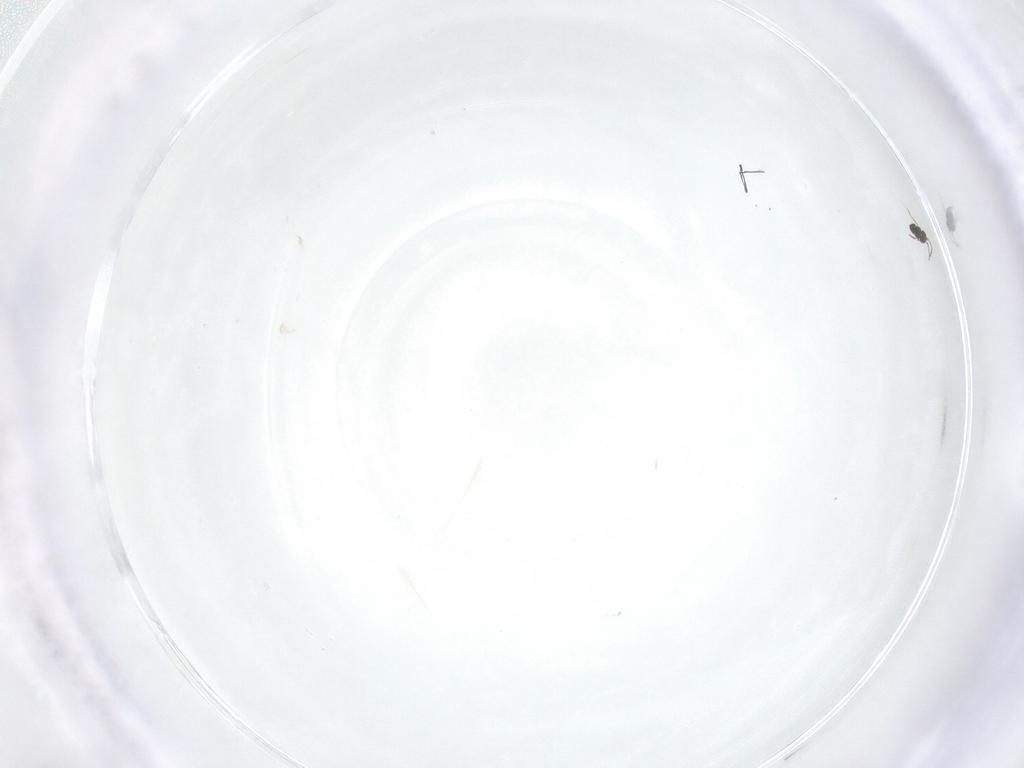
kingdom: Animalia
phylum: Arthropoda
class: Insecta
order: Hymenoptera
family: Mymaridae
